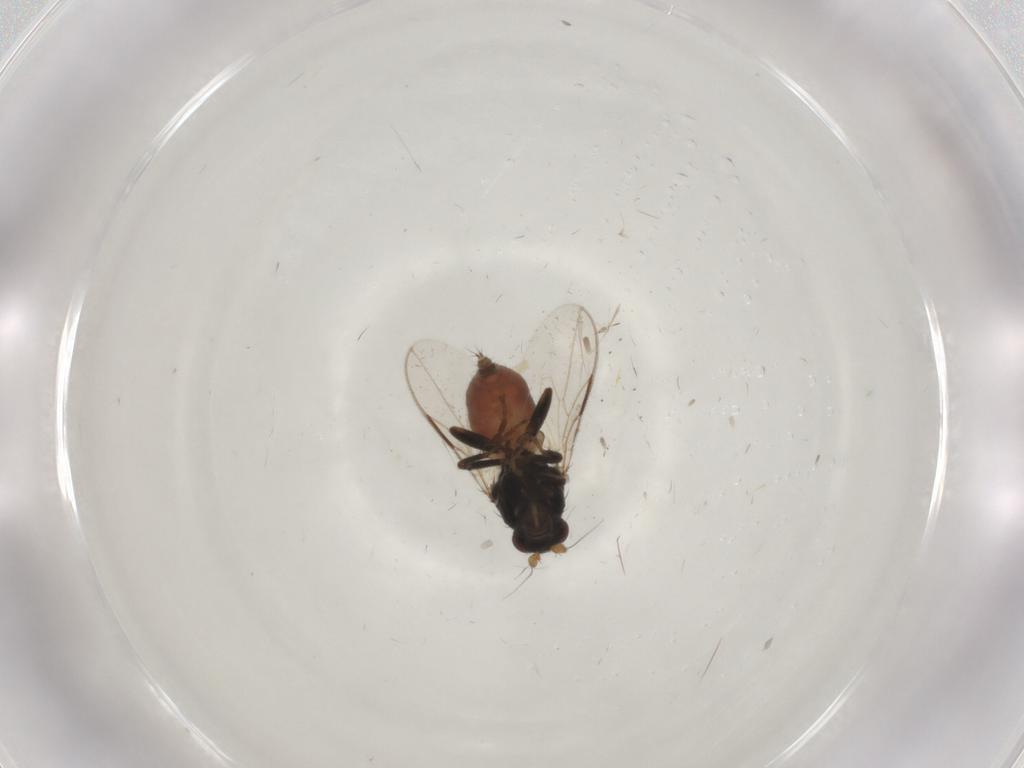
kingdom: Animalia
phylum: Arthropoda
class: Insecta
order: Diptera
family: Sphaeroceridae
